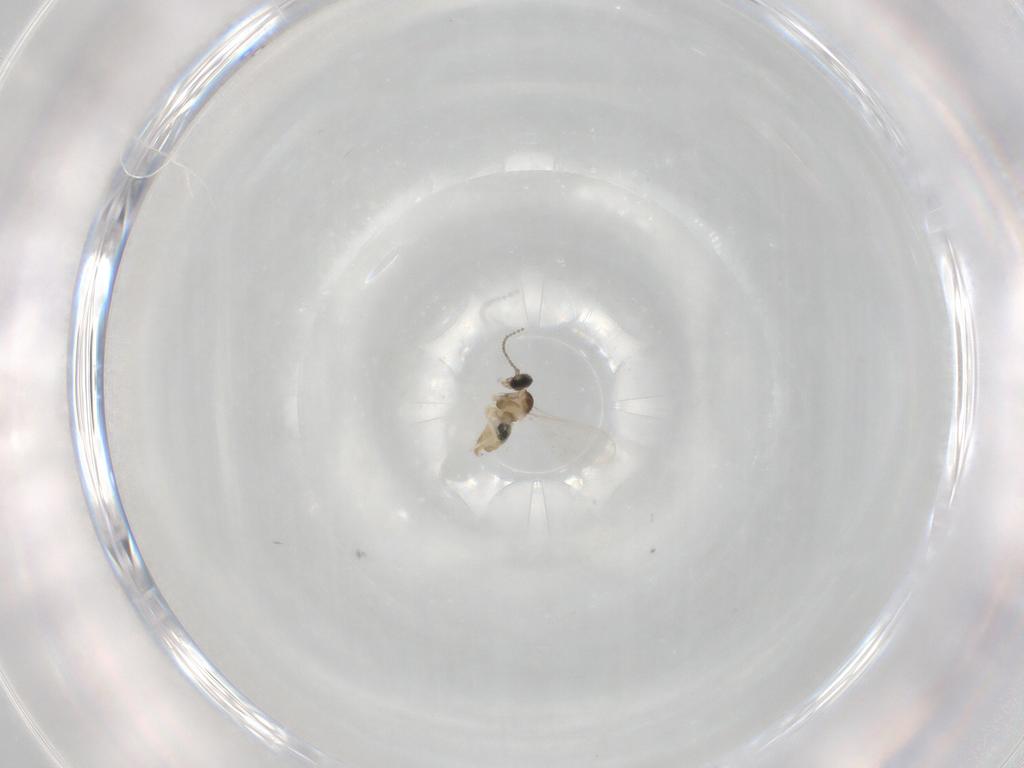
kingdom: Animalia
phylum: Arthropoda
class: Insecta
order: Diptera
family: Cecidomyiidae
